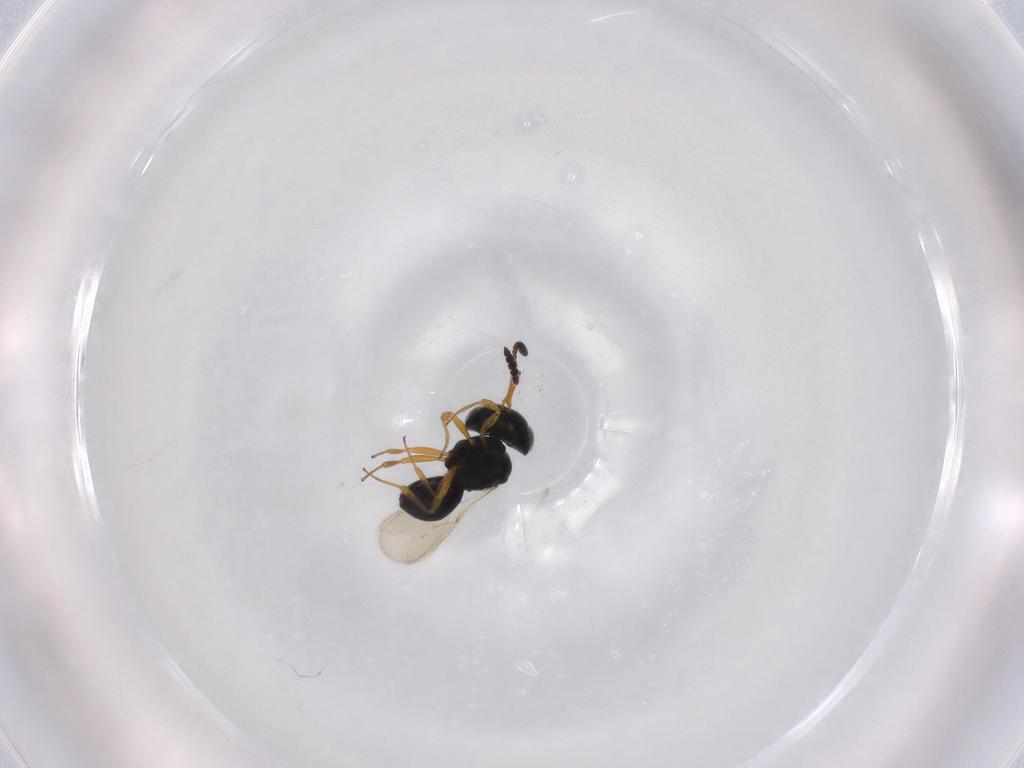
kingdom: Animalia
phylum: Arthropoda
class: Insecta
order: Hymenoptera
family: Scelionidae
